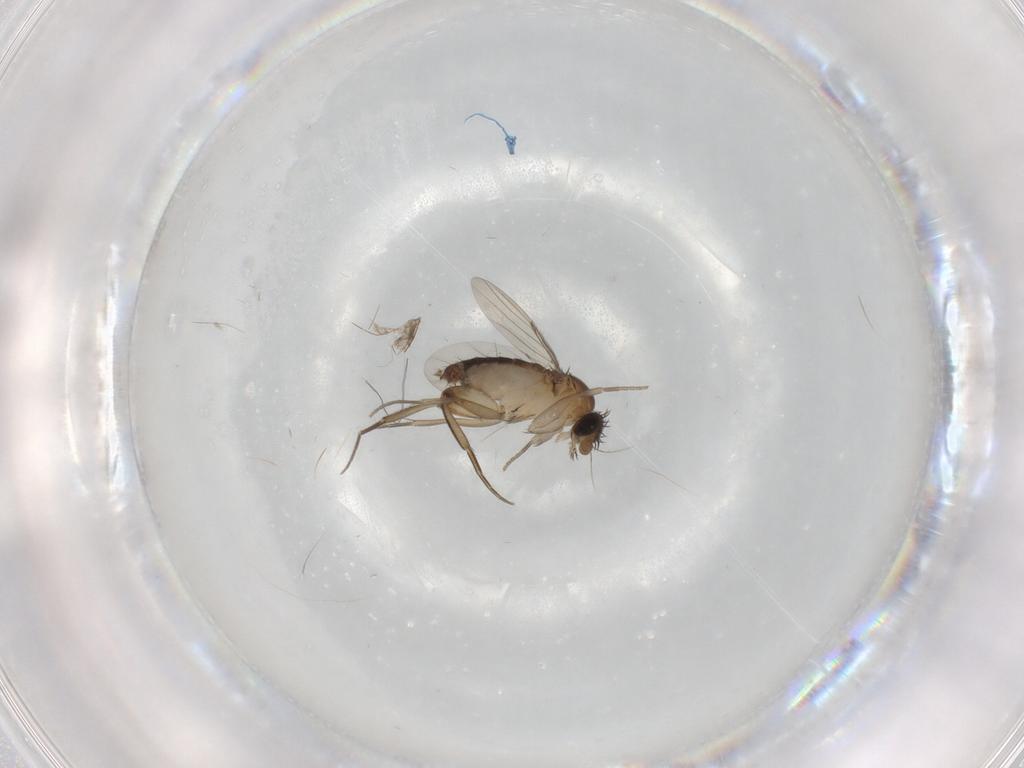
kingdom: Animalia
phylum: Arthropoda
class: Insecta
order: Diptera
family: Phoridae
